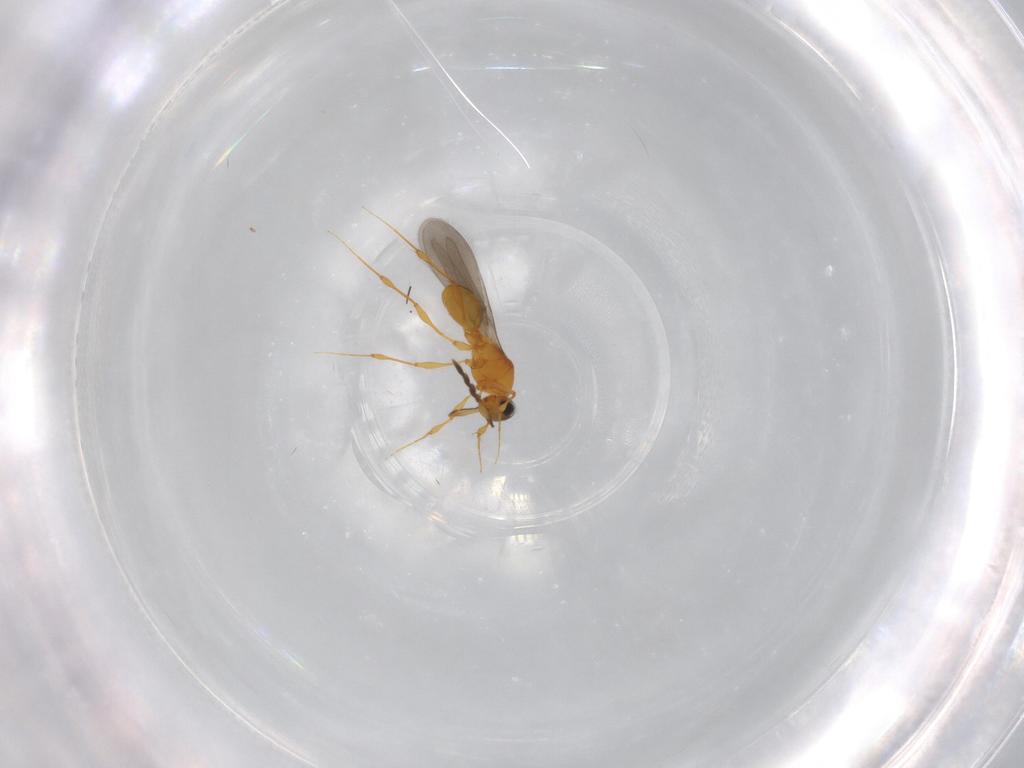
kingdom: Animalia
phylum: Arthropoda
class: Insecta
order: Hymenoptera
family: Platygastridae
